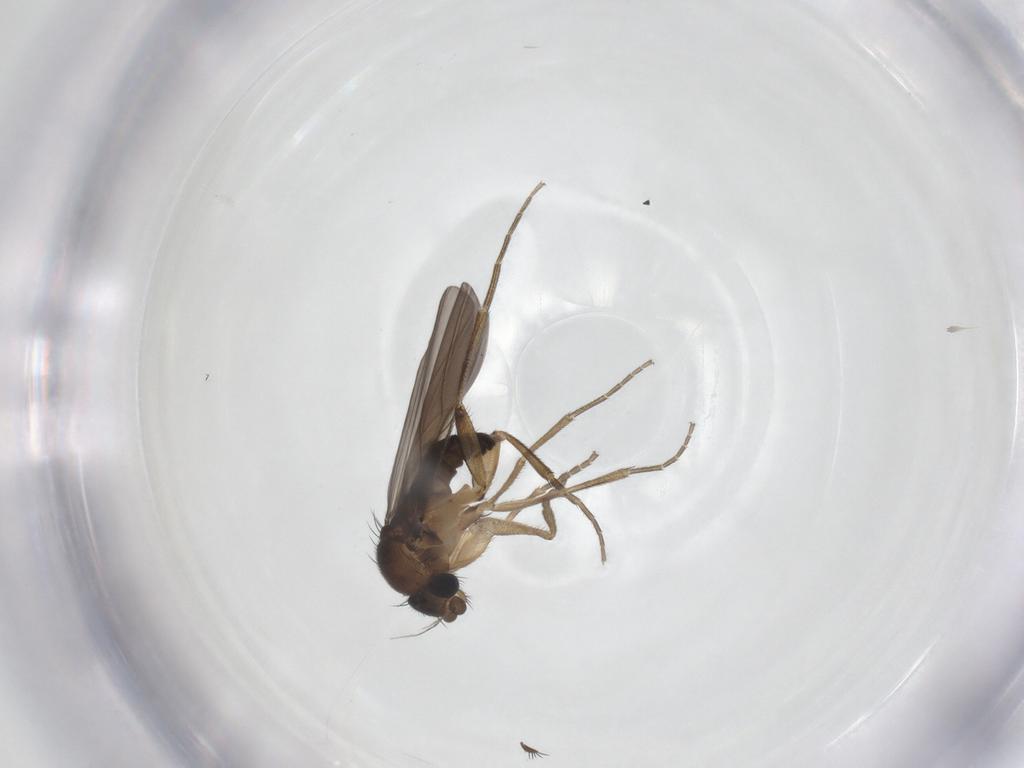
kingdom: Animalia
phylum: Arthropoda
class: Insecta
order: Diptera
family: Phoridae
